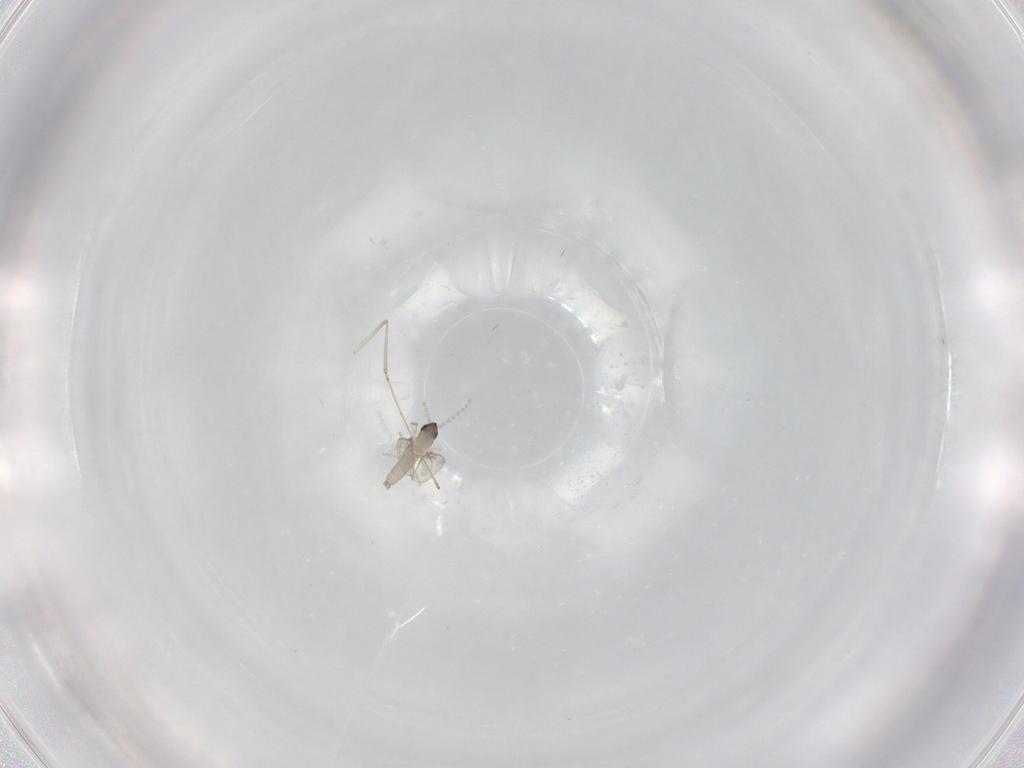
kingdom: Animalia
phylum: Arthropoda
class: Insecta
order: Diptera
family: Cecidomyiidae
